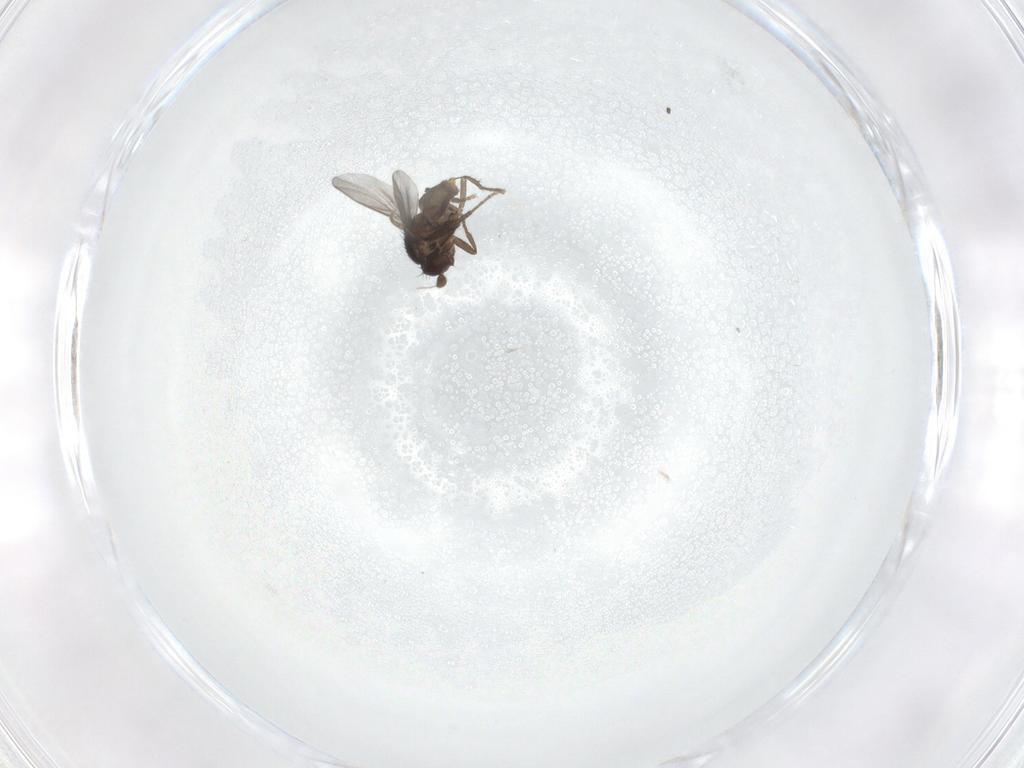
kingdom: Animalia
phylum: Arthropoda
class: Insecta
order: Diptera
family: Sphaeroceridae
